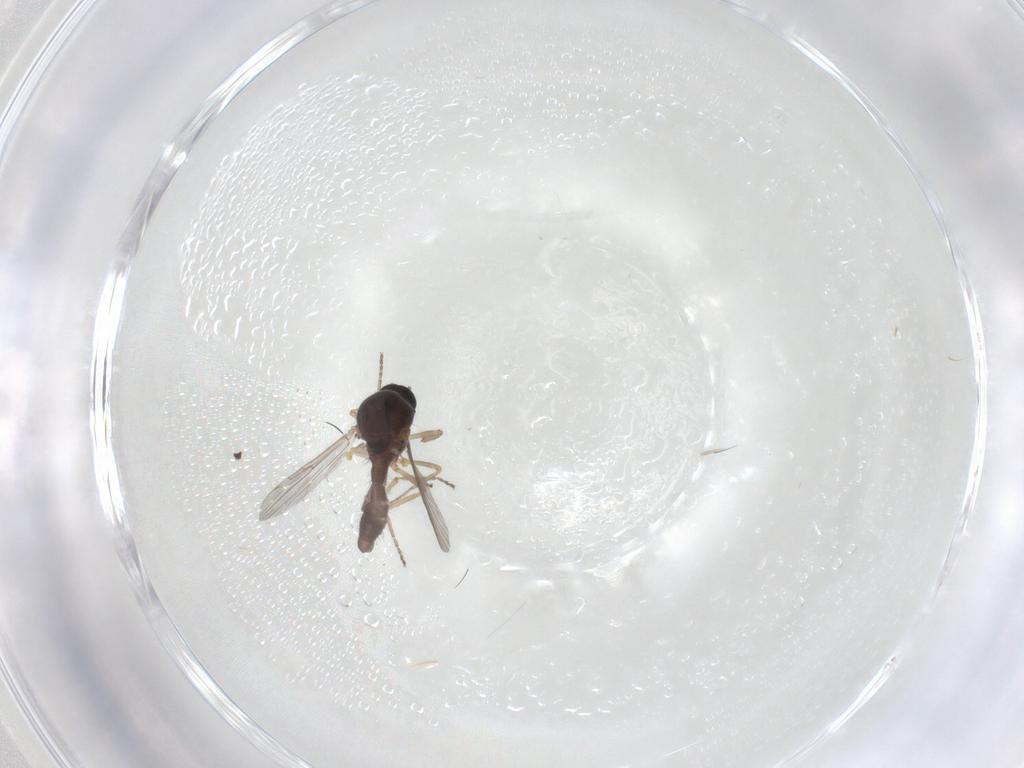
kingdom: Animalia
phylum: Arthropoda
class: Insecta
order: Diptera
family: Ceratopogonidae
